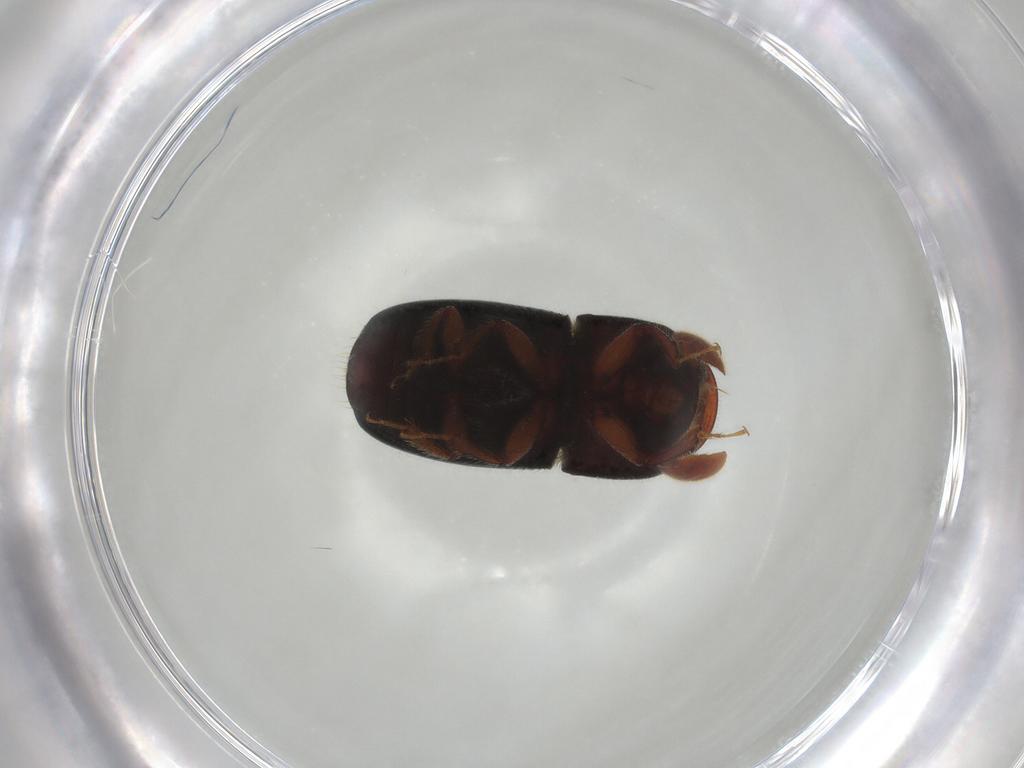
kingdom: Animalia
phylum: Arthropoda
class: Insecta
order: Coleoptera
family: Curculionidae
